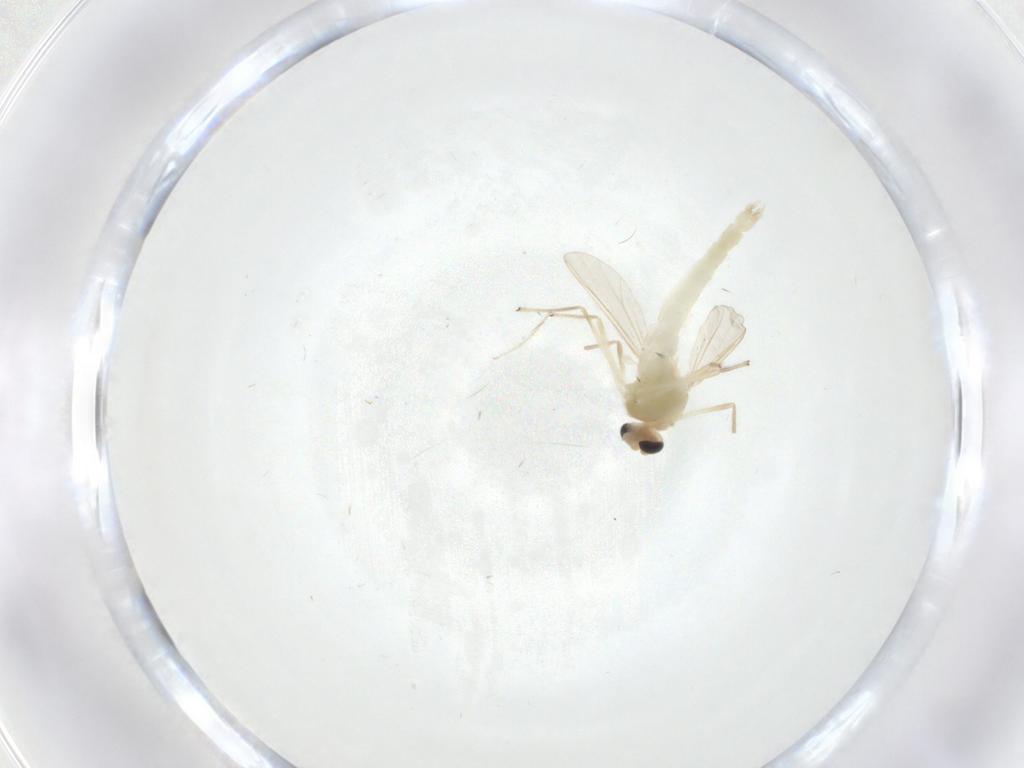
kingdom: Animalia
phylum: Arthropoda
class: Insecta
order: Diptera
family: Chironomidae
